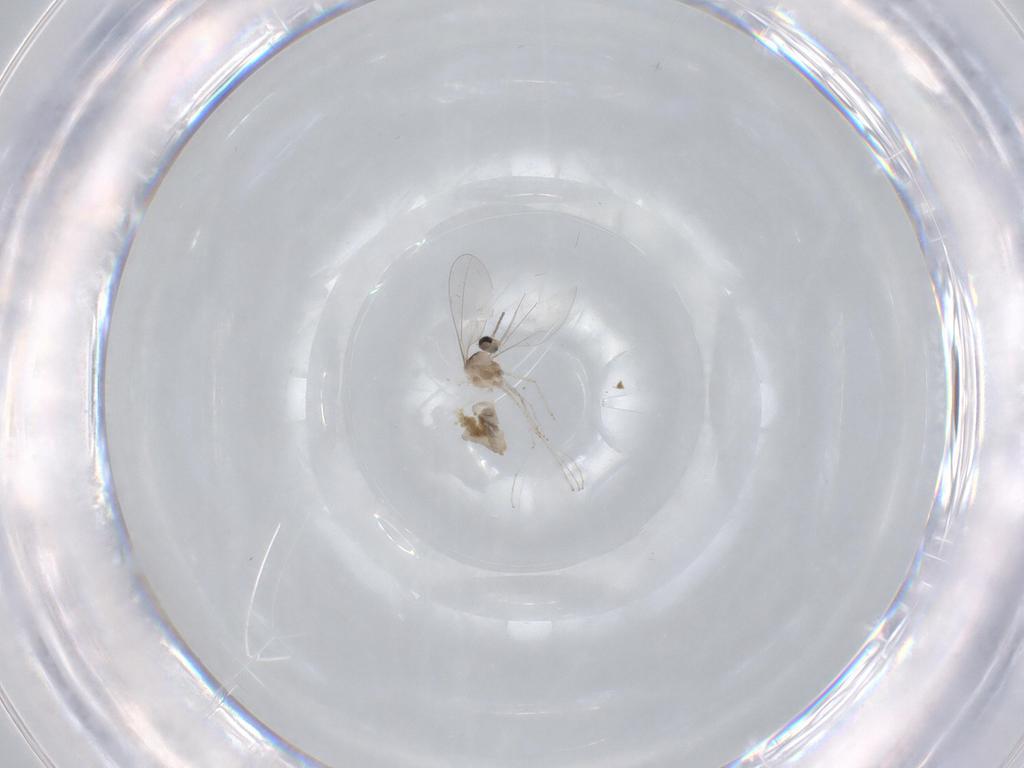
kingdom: Animalia
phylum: Arthropoda
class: Insecta
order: Diptera
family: Cecidomyiidae
